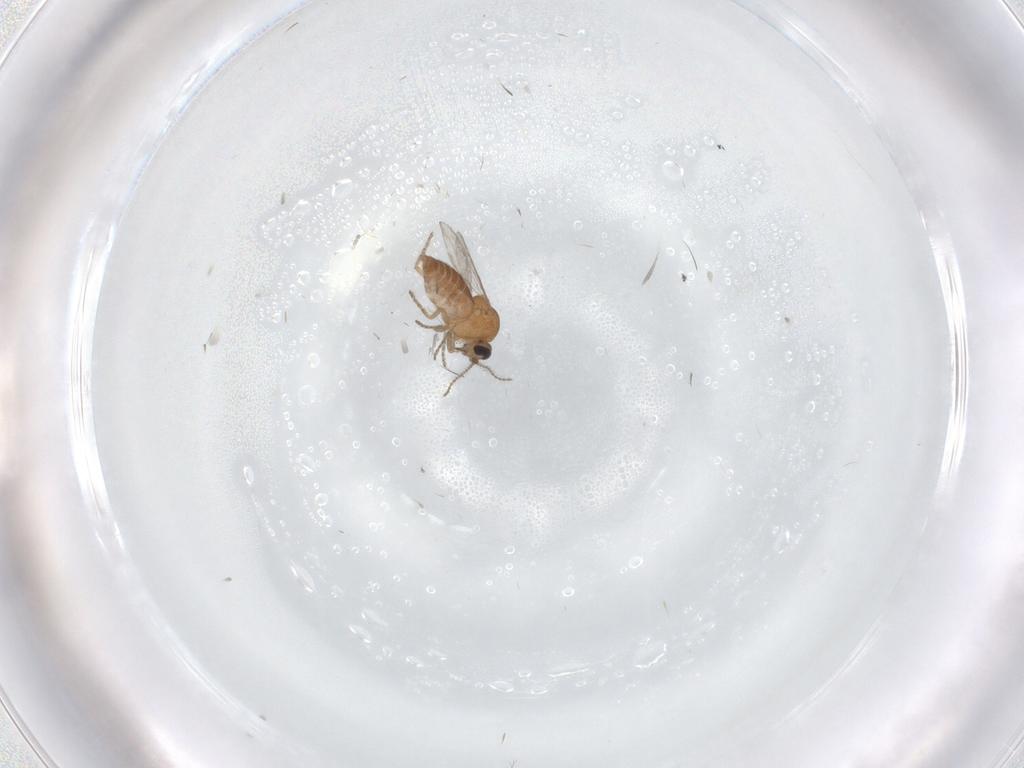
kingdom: Animalia
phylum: Arthropoda
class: Insecta
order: Diptera
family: Ceratopogonidae
